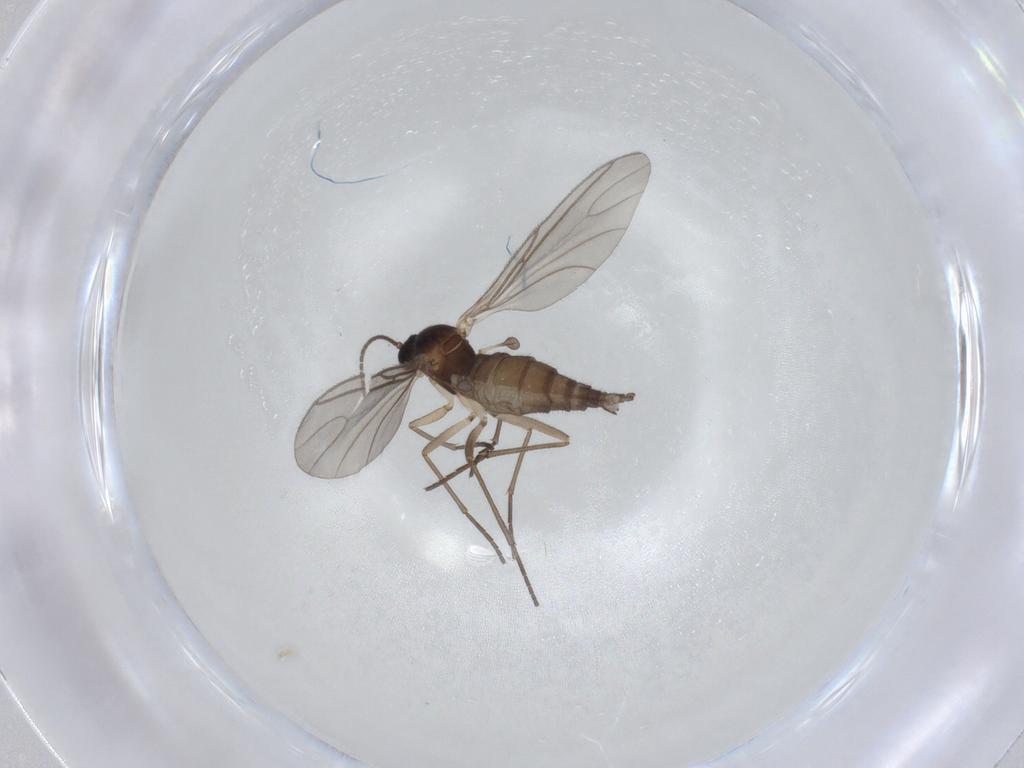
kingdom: Animalia
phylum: Arthropoda
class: Insecta
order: Diptera
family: Sciaridae
